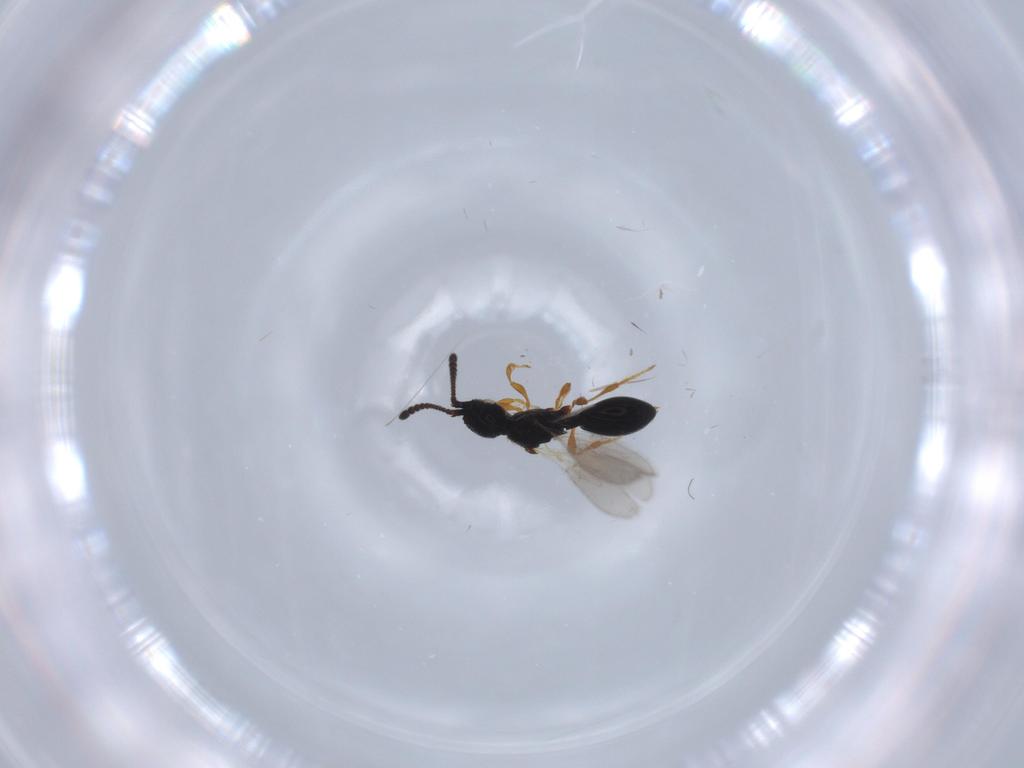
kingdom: Animalia
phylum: Arthropoda
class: Insecta
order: Hymenoptera
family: Diapriidae
